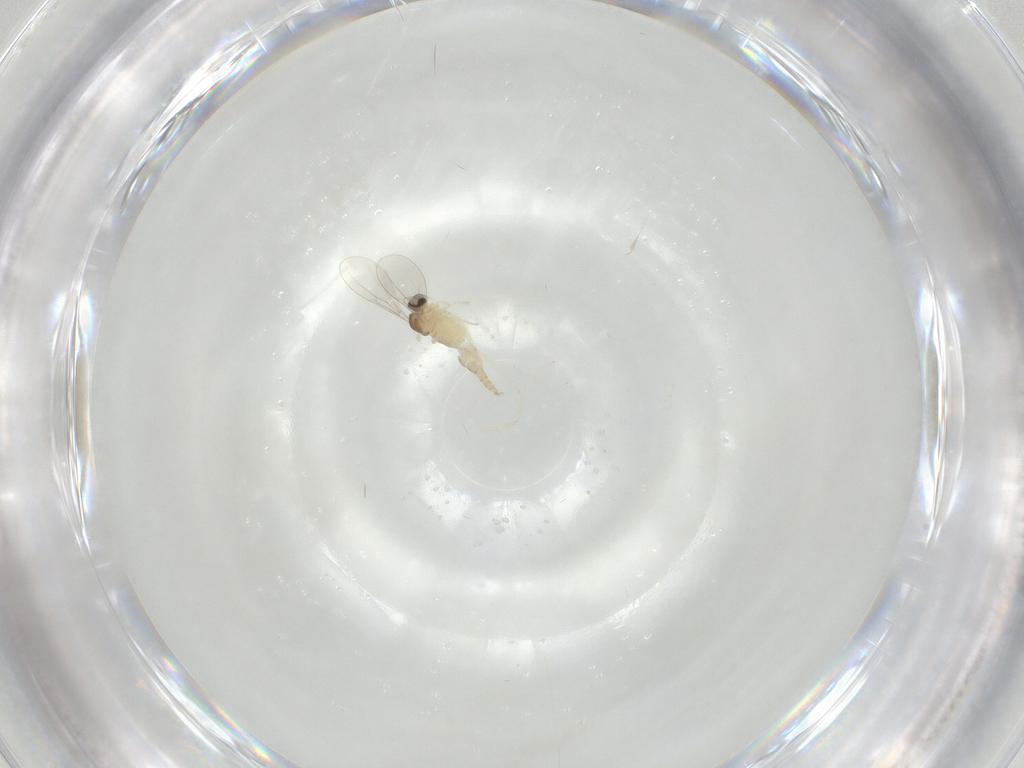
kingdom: Animalia
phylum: Arthropoda
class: Insecta
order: Diptera
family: Cecidomyiidae
